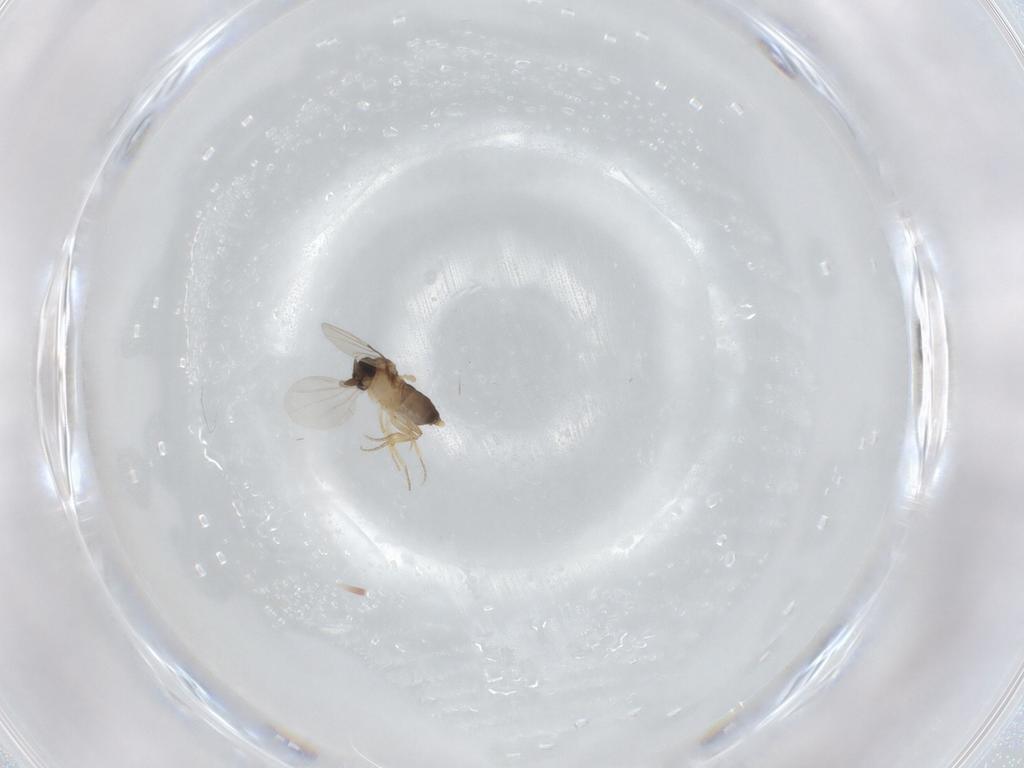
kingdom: Animalia
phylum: Arthropoda
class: Insecta
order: Diptera
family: Phoridae
